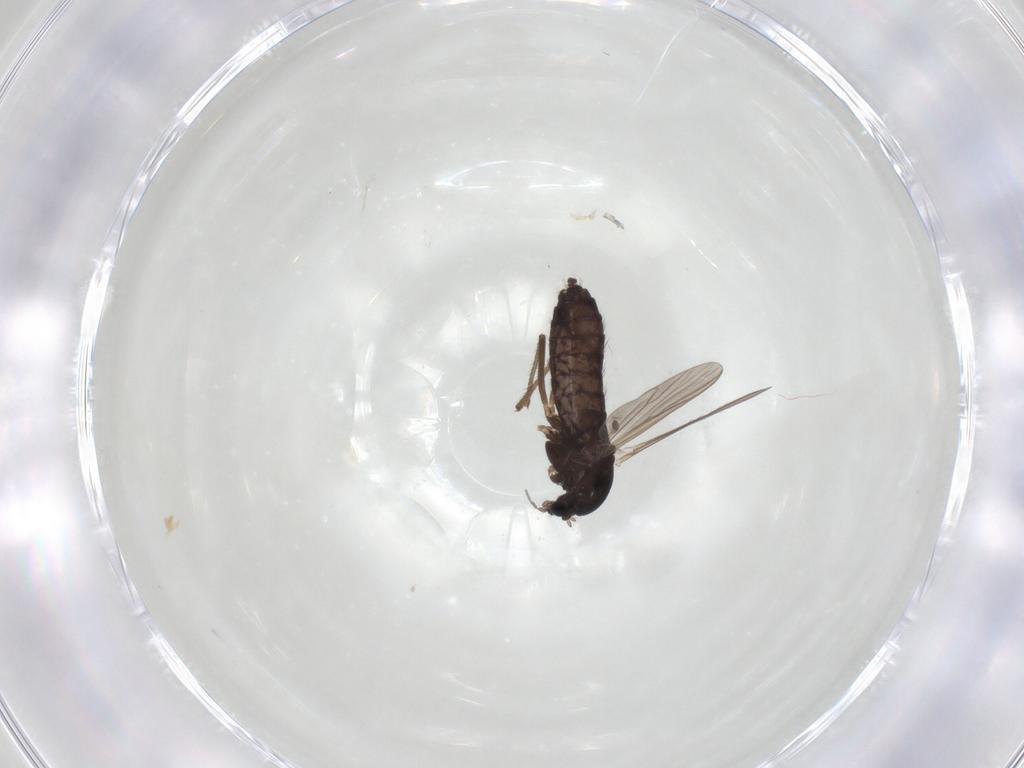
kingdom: Animalia
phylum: Arthropoda
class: Insecta
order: Diptera
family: Chironomidae
